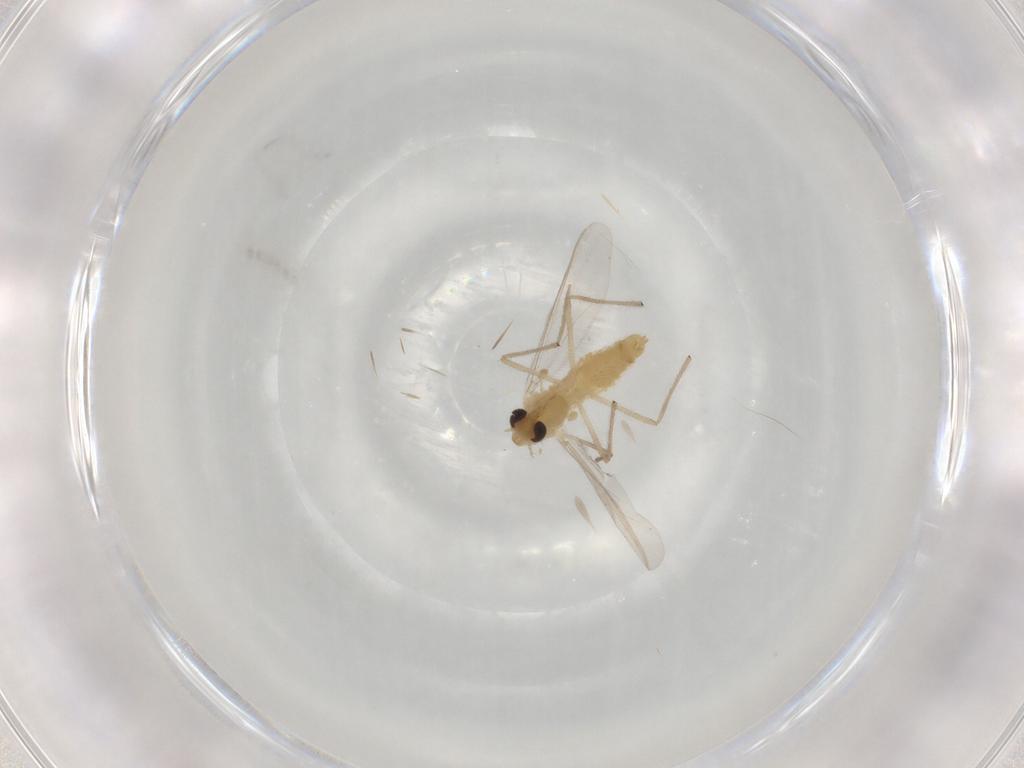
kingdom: Animalia
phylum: Arthropoda
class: Insecta
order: Diptera
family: Chironomidae
